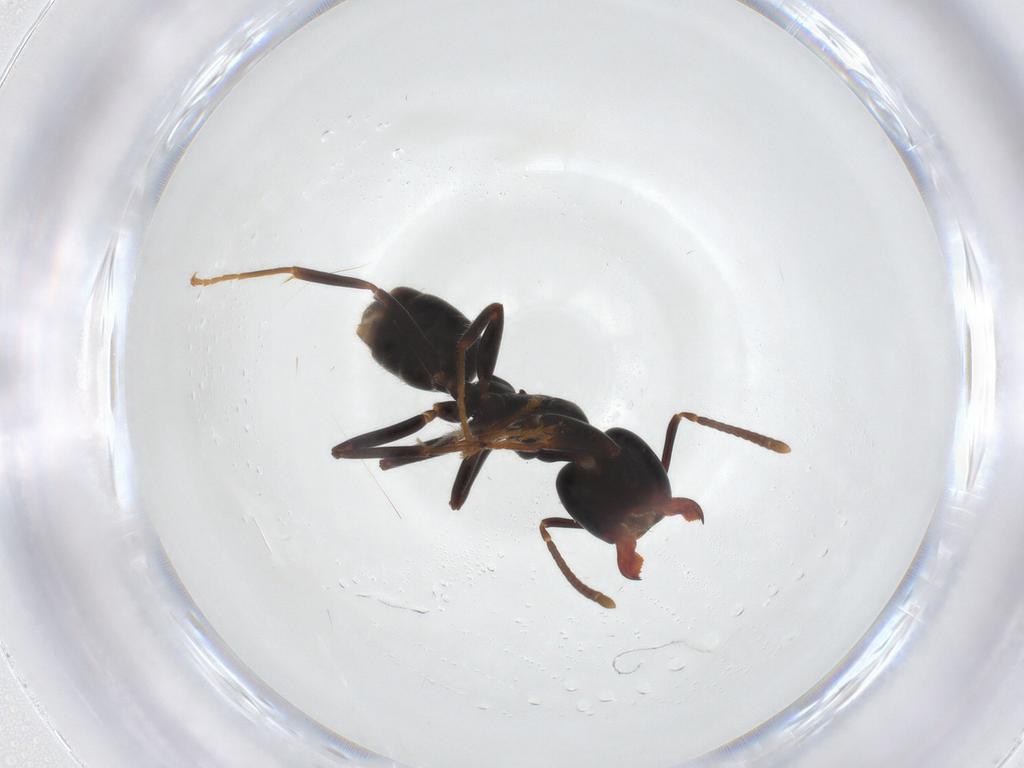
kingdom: Animalia
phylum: Arthropoda
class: Insecta
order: Hymenoptera
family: Formicidae
